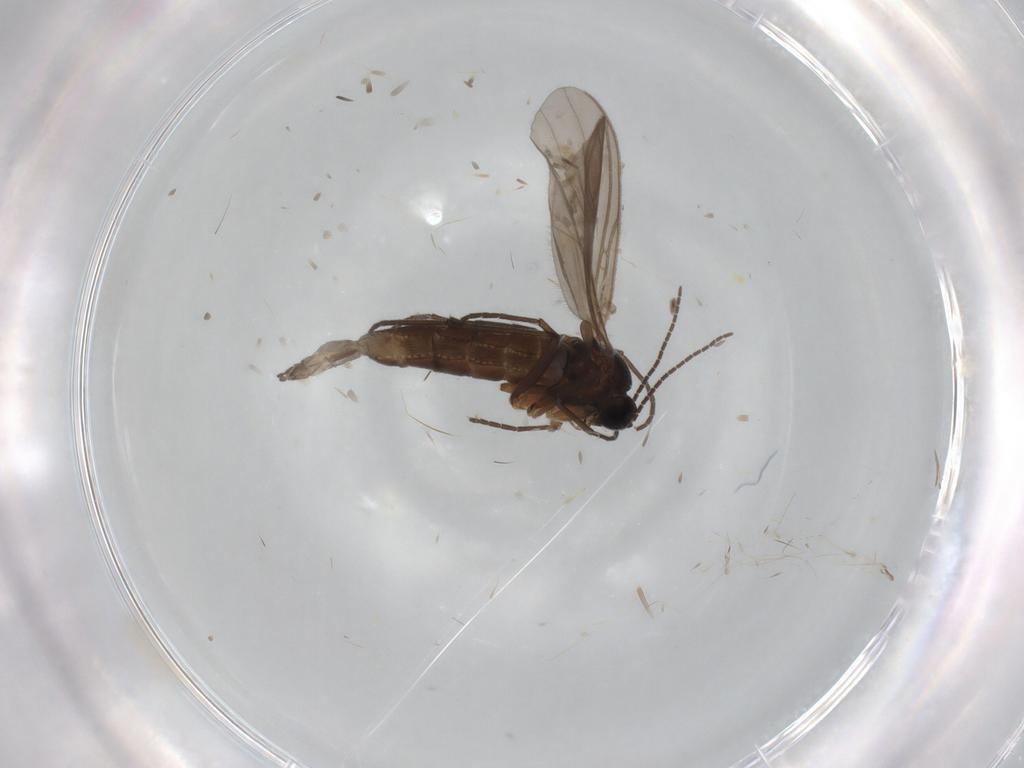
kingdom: Animalia
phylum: Arthropoda
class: Insecta
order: Diptera
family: Sciaridae
